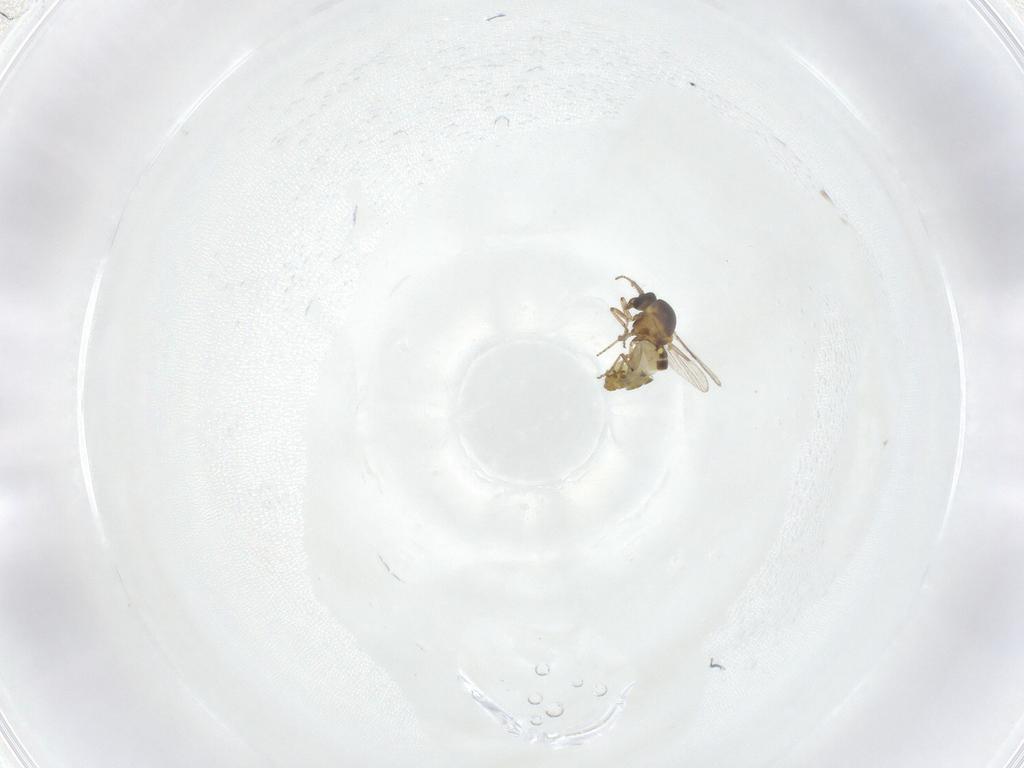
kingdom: Animalia
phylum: Arthropoda
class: Insecta
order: Diptera
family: Ceratopogonidae
